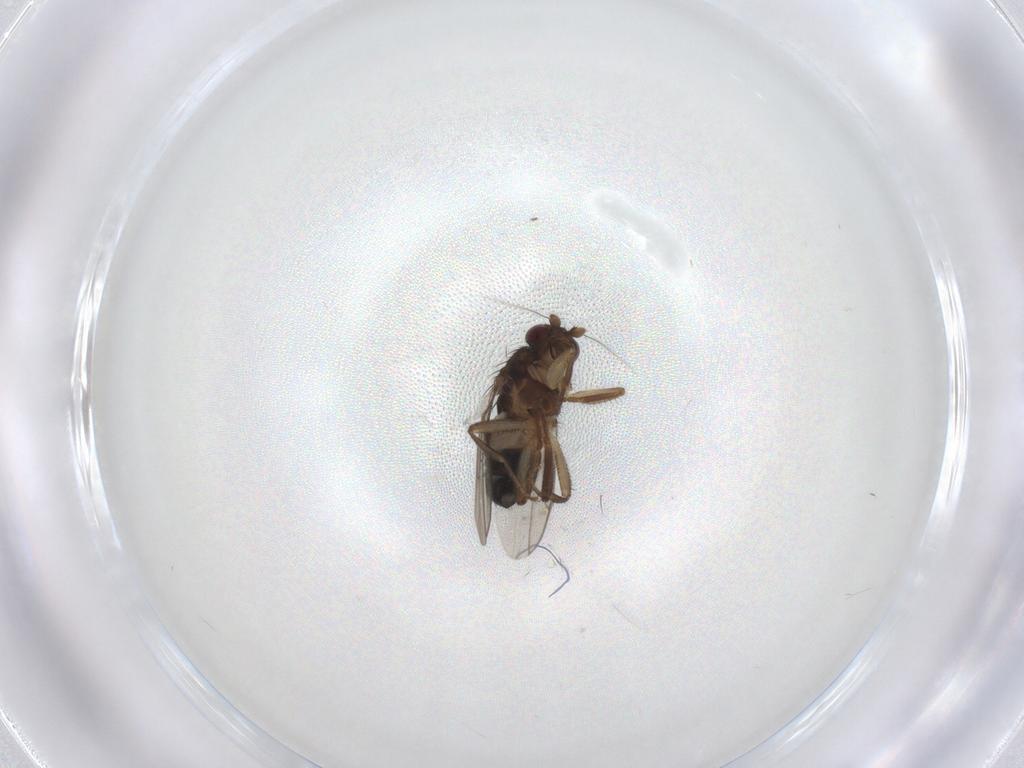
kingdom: Animalia
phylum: Arthropoda
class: Insecta
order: Diptera
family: Sphaeroceridae
